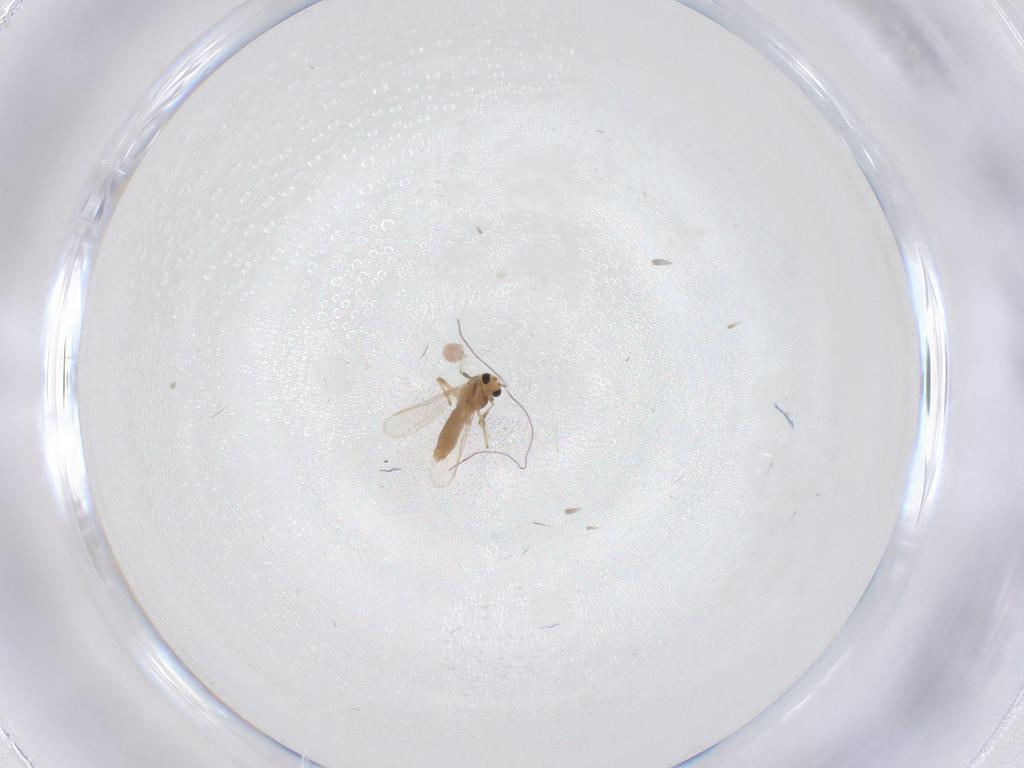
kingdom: Animalia
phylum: Arthropoda
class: Insecta
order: Diptera
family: Chironomidae
